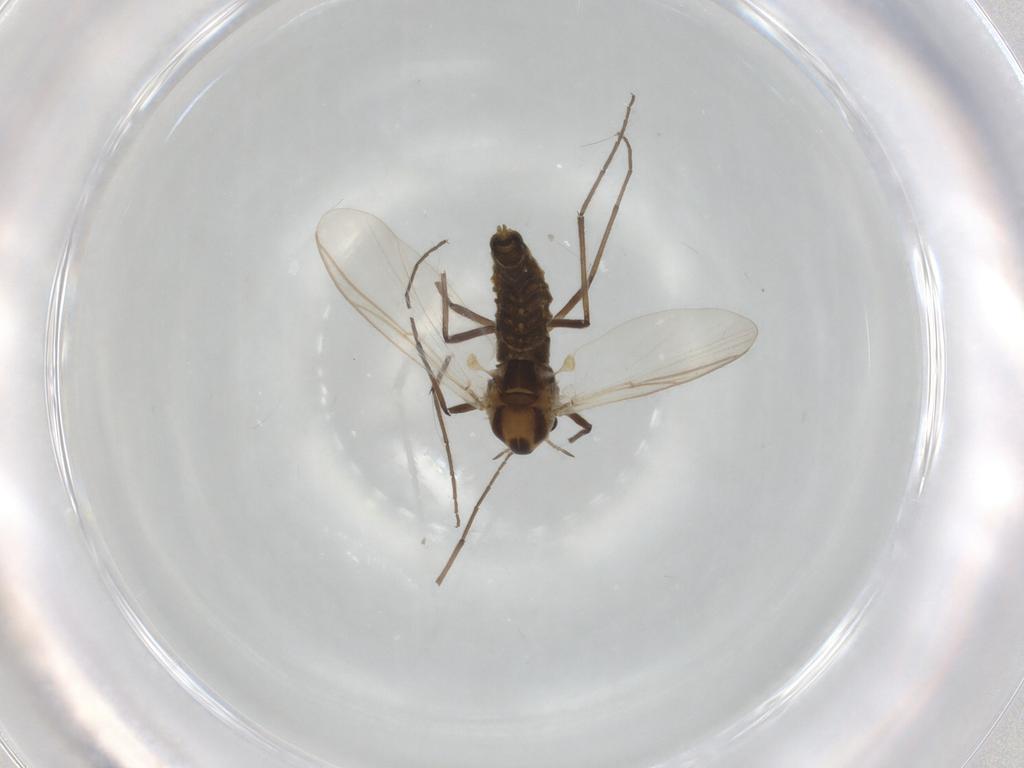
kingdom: Animalia
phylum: Arthropoda
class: Insecta
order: Diptera
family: Chironomidae
